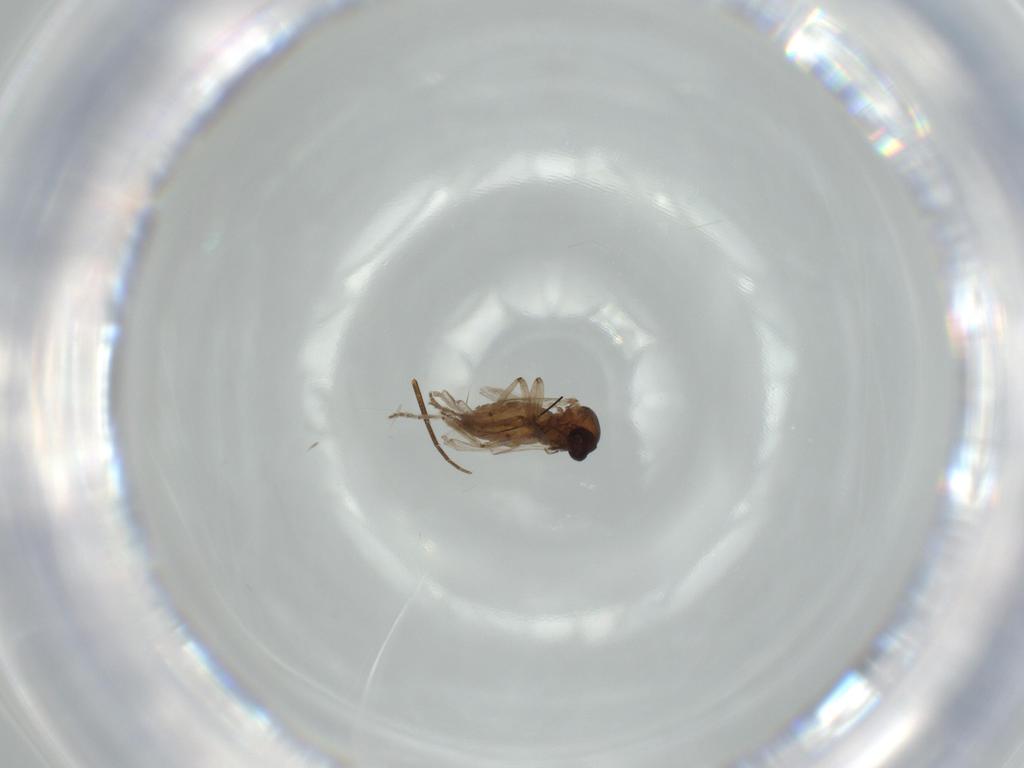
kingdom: Animalia
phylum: Arthropoda
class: Insecta
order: Diptera
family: Ceratopogonidae
